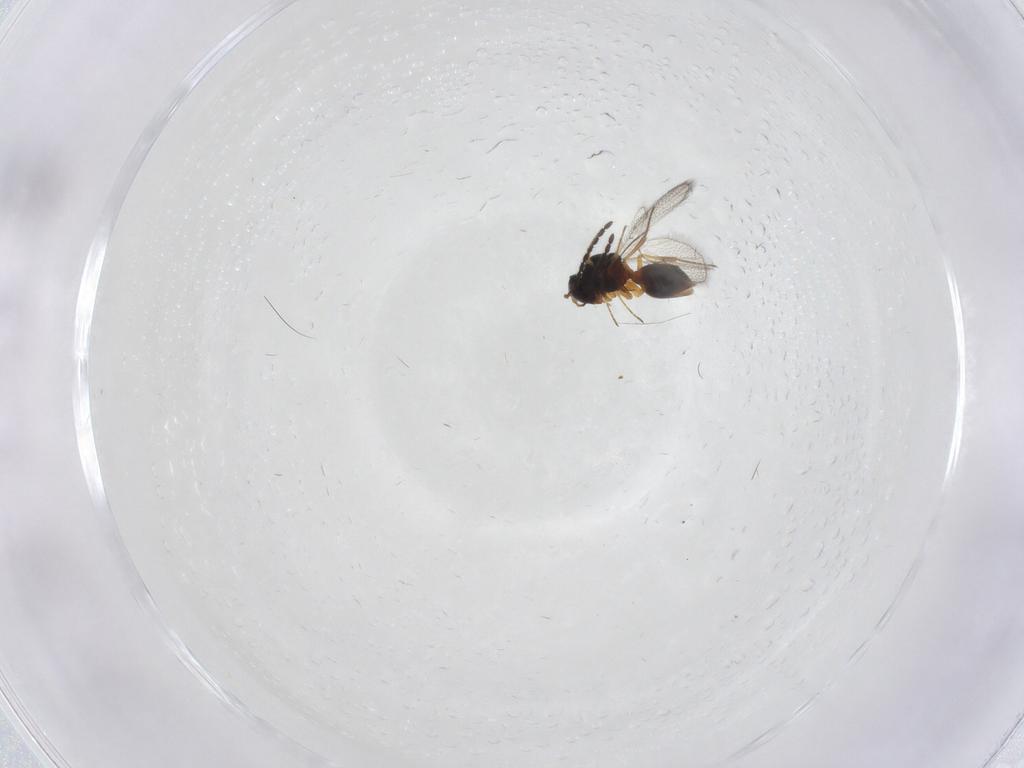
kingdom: Animalia
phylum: Arthropoda
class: Insecta
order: Hymenoptera
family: Figitidae
